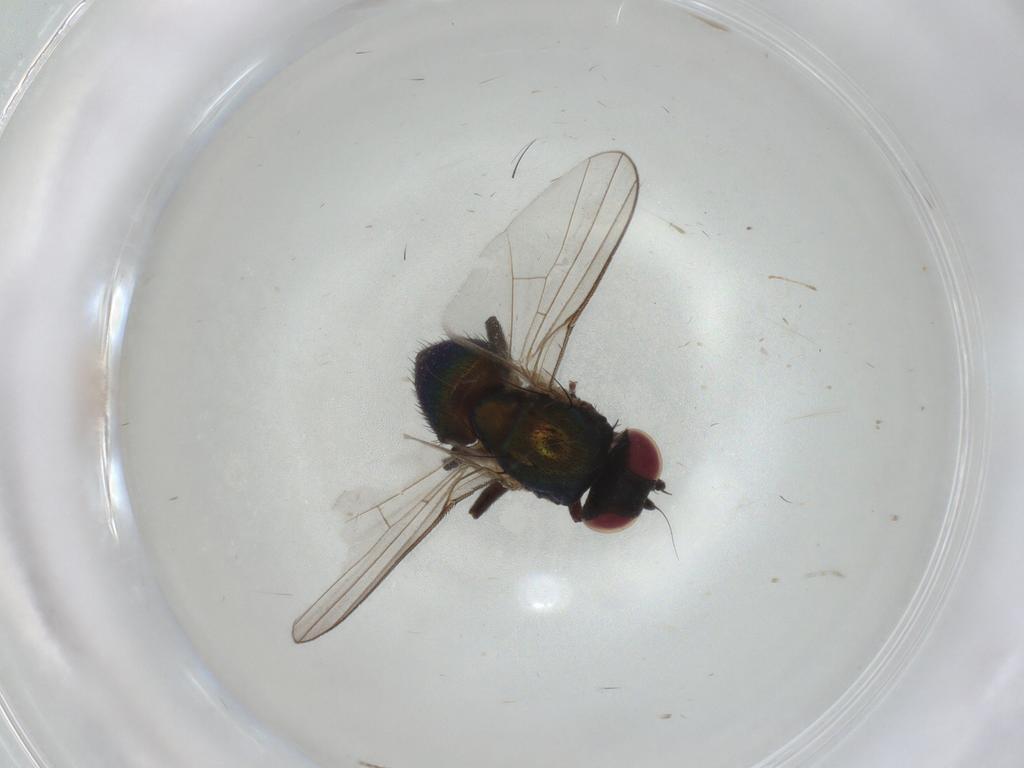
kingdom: Animalia
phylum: Arthropoda
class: Insecta
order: Diptera
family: Cecidomyiidae
